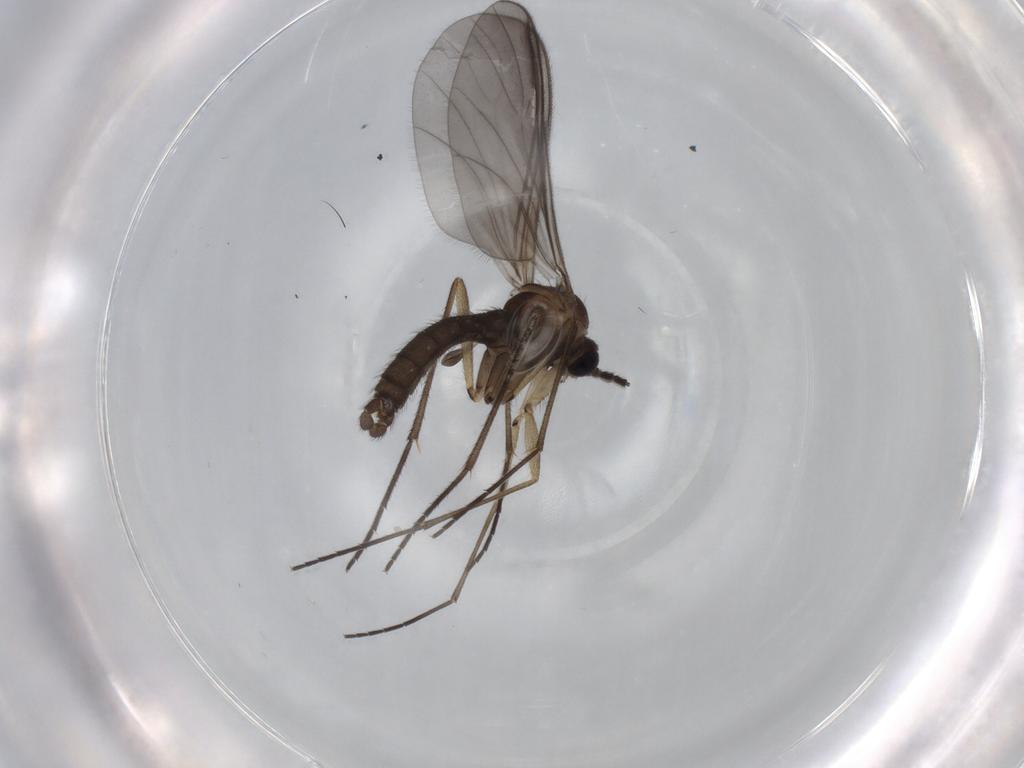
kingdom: Animalia
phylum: Arthropoda
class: Insecta
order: Diptera
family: Sciaridae
